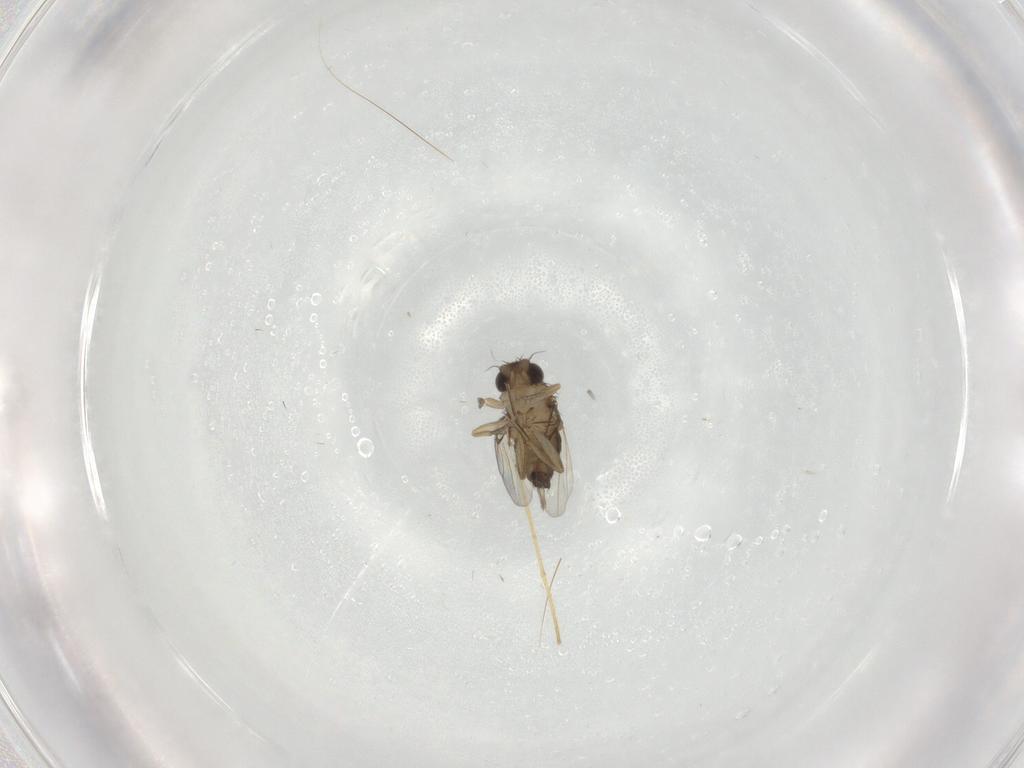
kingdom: Animalia
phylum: Arthropoda
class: Insecta
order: Diptera
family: Chironomidae
